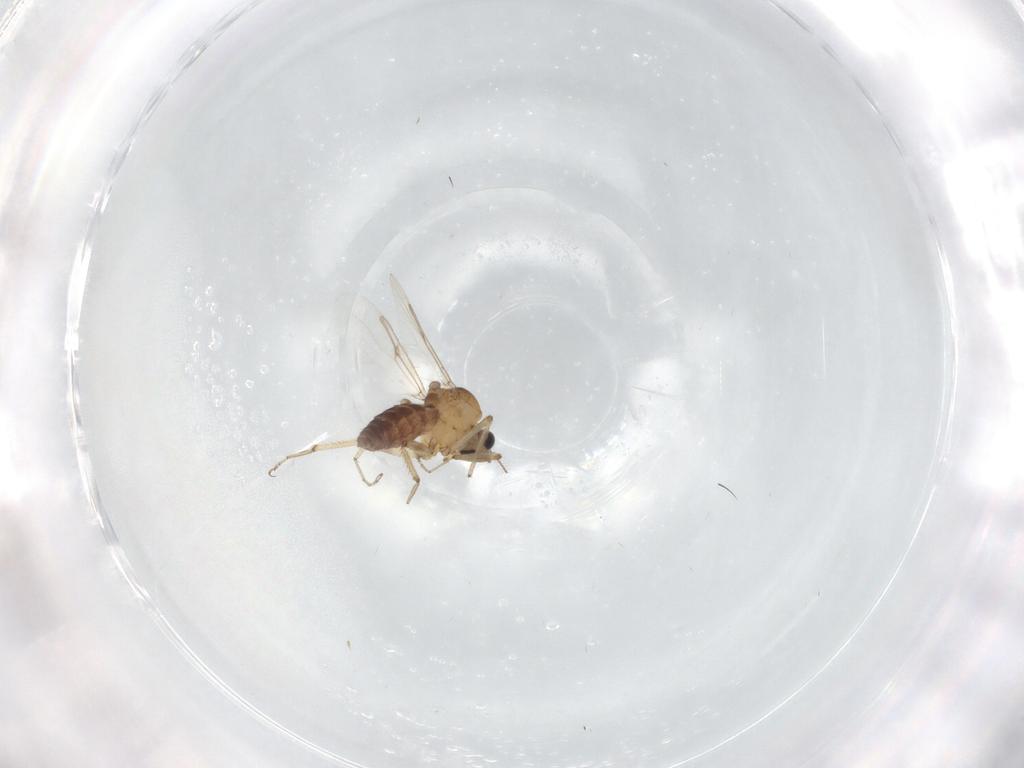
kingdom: Animalia
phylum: Arthropoda
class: Insecta
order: Diptera
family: Ceratopogonidae
